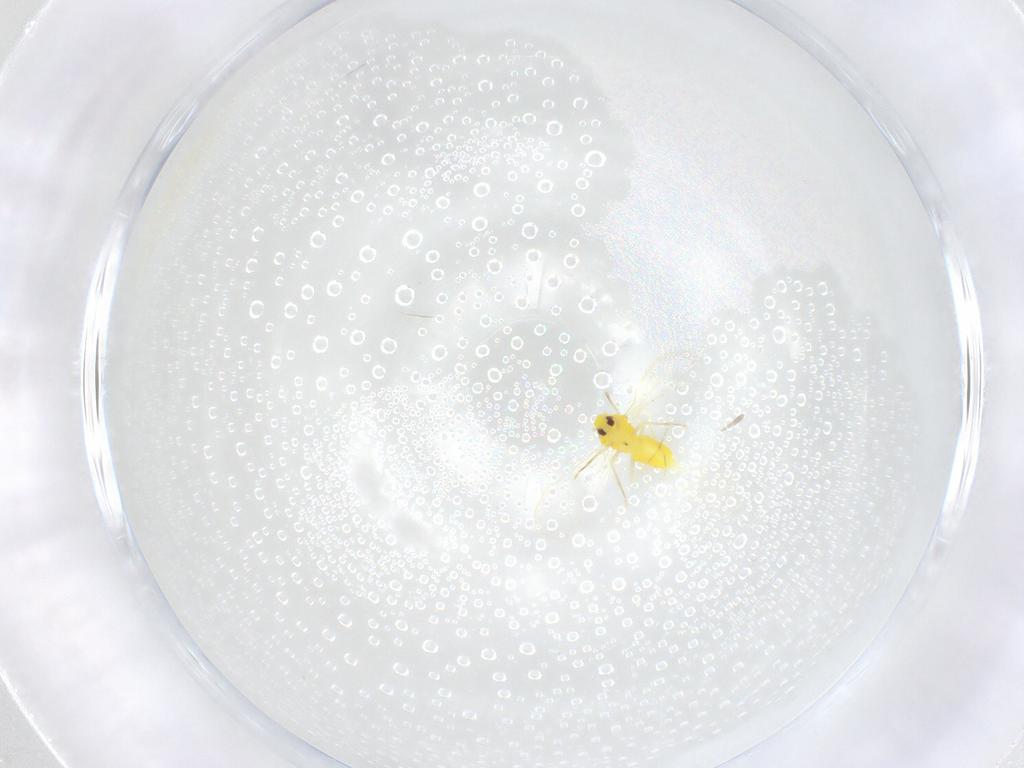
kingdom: Animalia
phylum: Arthropoda
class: Insecta
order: Hemiptera
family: Aleyrodidae
